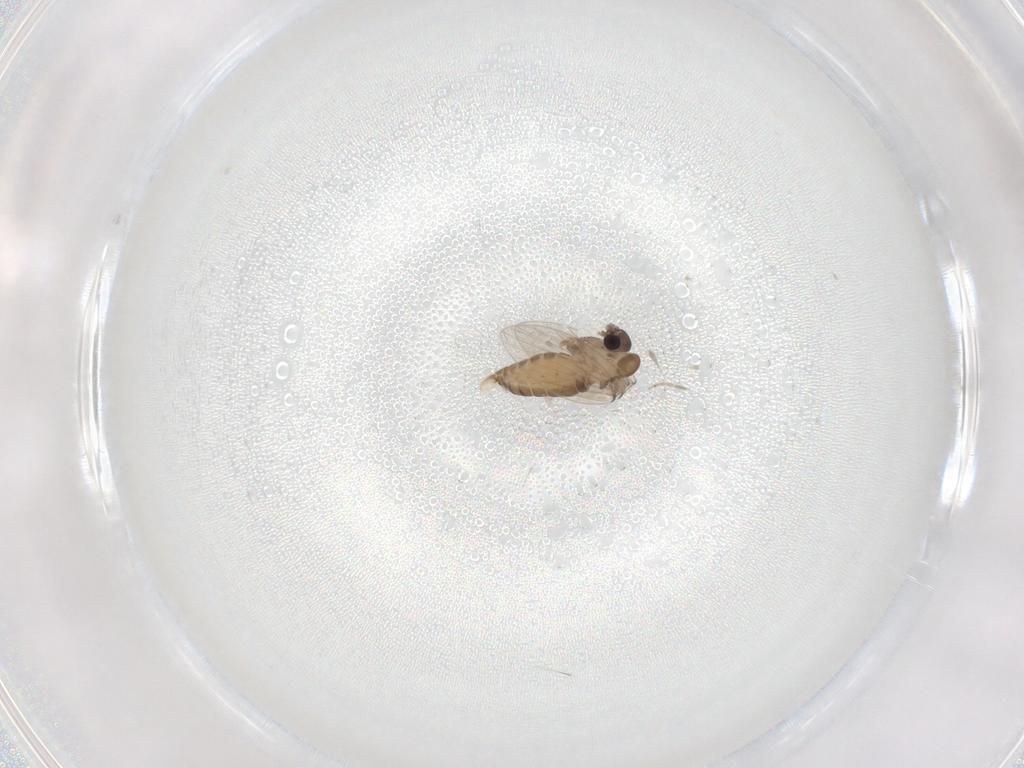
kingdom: Animalia
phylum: Arthropoda
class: Insecta
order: Diptera
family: Psychodidae
